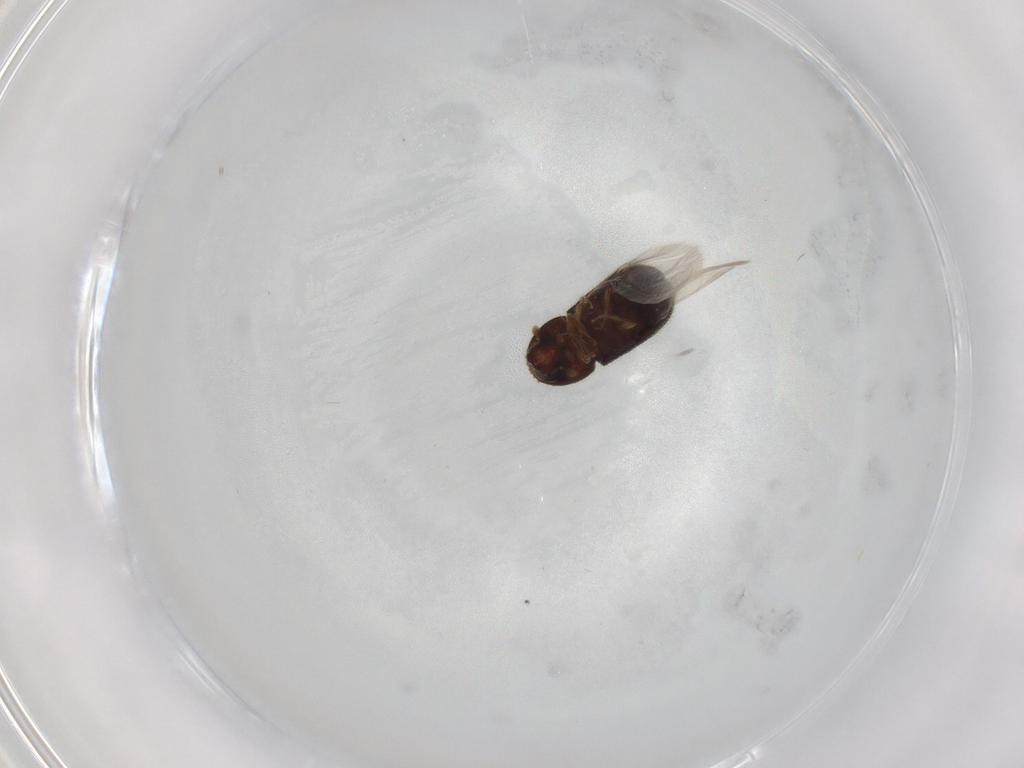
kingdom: Animalia
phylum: Arthropoda
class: Insecta
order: Coleoptera
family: Curculionidae
